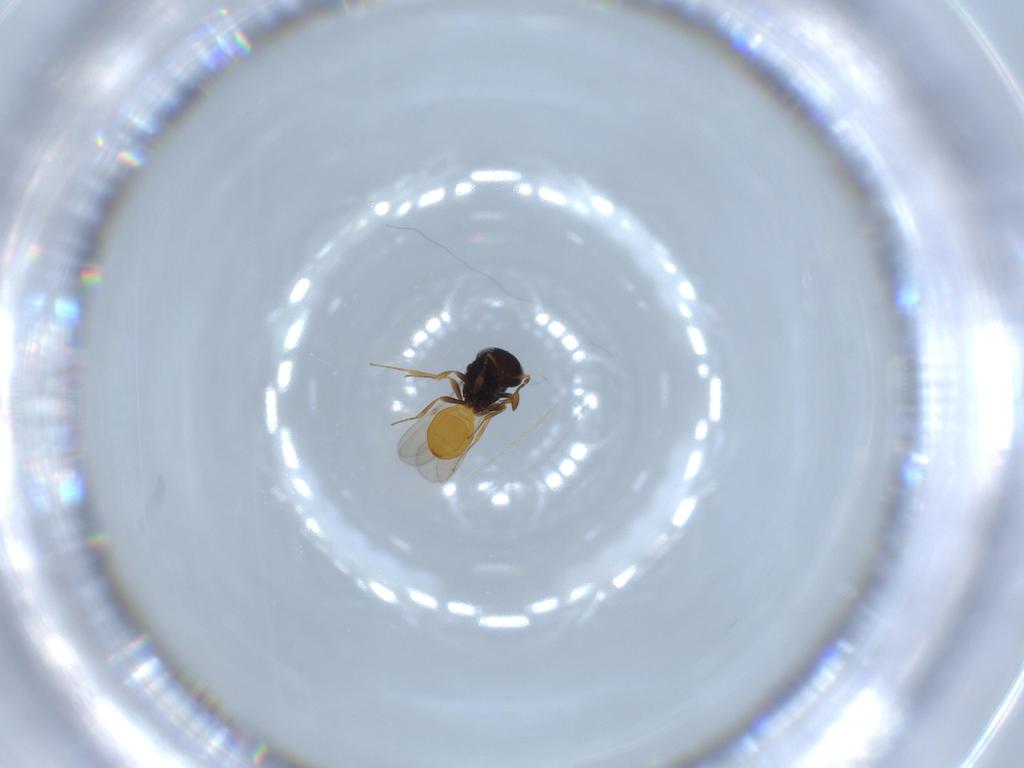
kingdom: Animalia
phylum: Arthropoda
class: Insecta
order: Hymenoptera
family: Scelionidae
